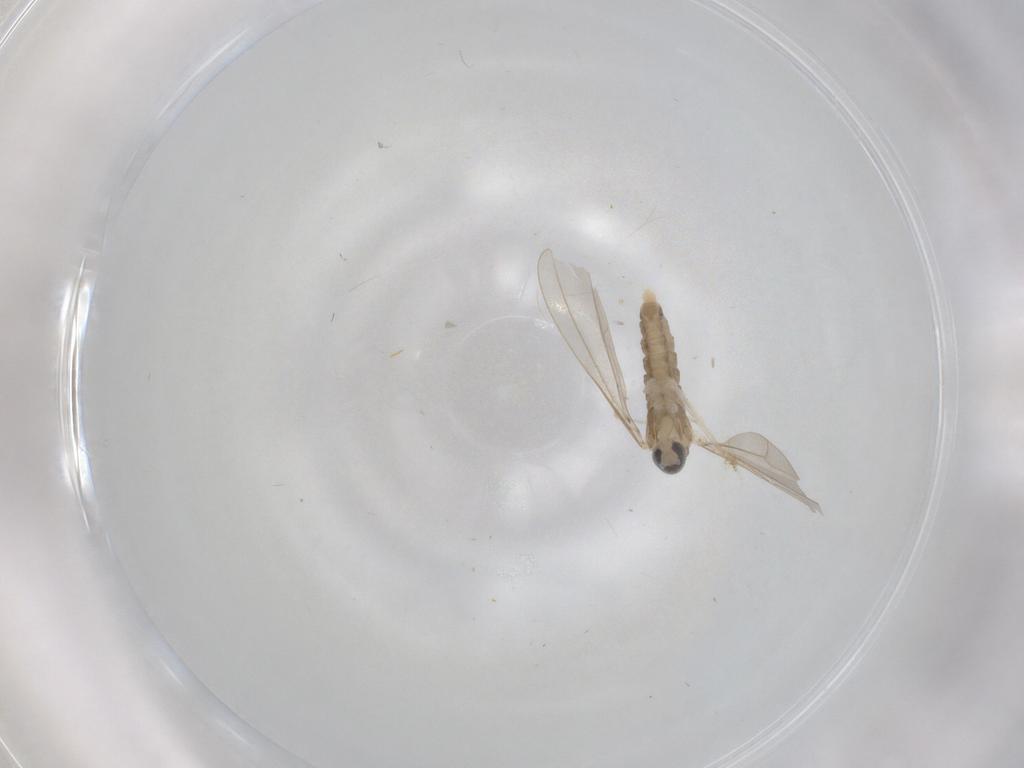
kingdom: Animalia
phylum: Arthropoda
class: Insecta
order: Diptera
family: Cecidomyiidae
